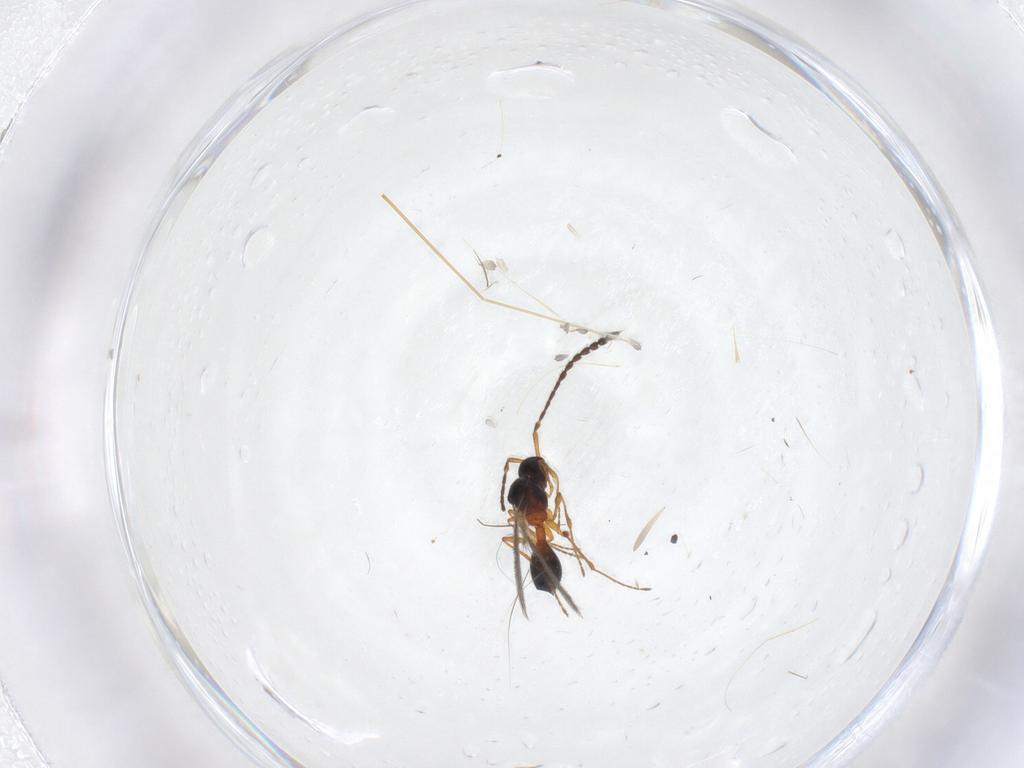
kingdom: Animalia
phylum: Arthropoda
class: Insecta
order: Hymenoptera
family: Diapriidae
